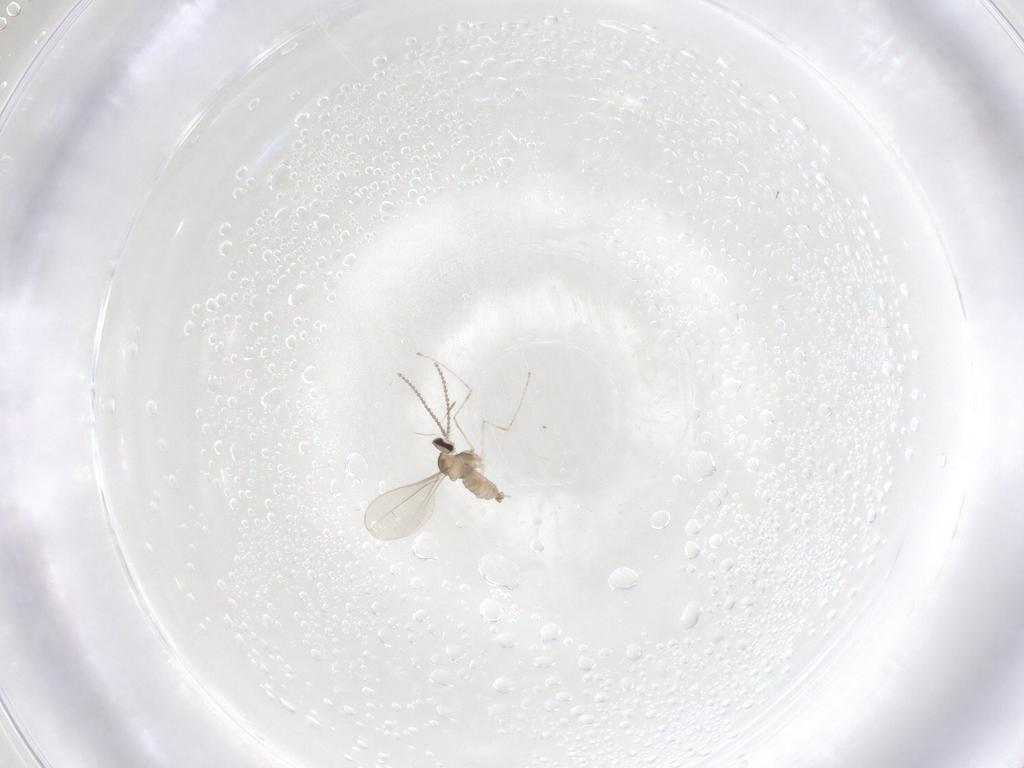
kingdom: Animalia
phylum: Arthropoda
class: Insecta
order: Diptera
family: Cecidomyiidae
